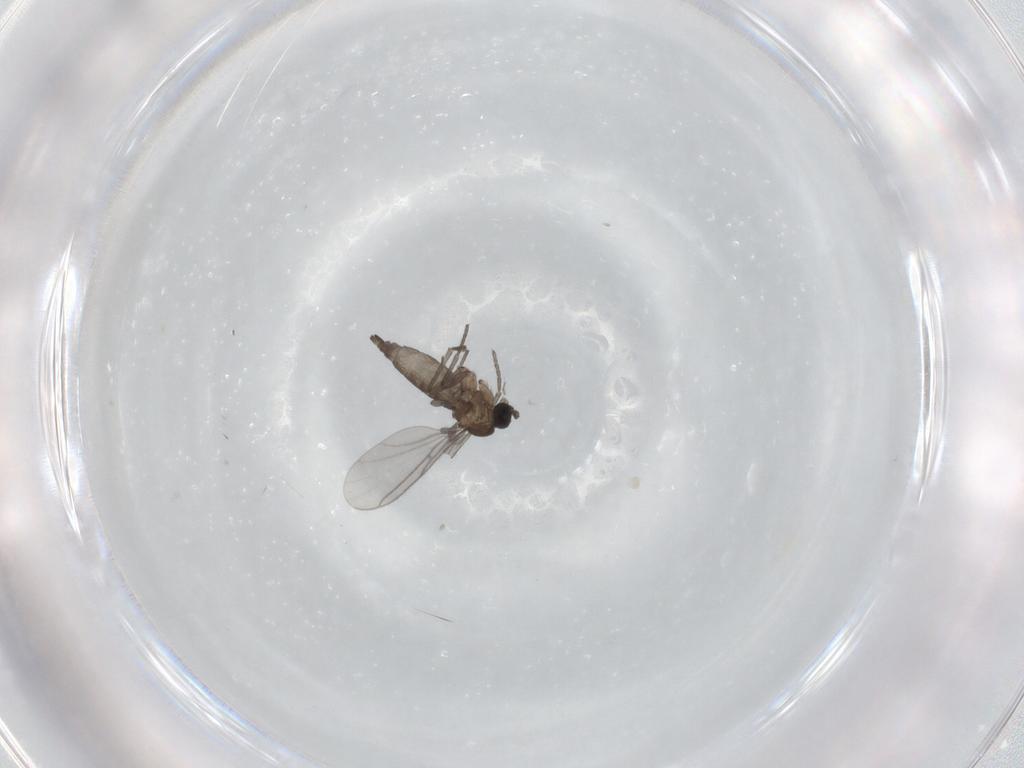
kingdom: Animalia
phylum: Arthropoda
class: Insecta
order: Diptera
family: Sciaridae
